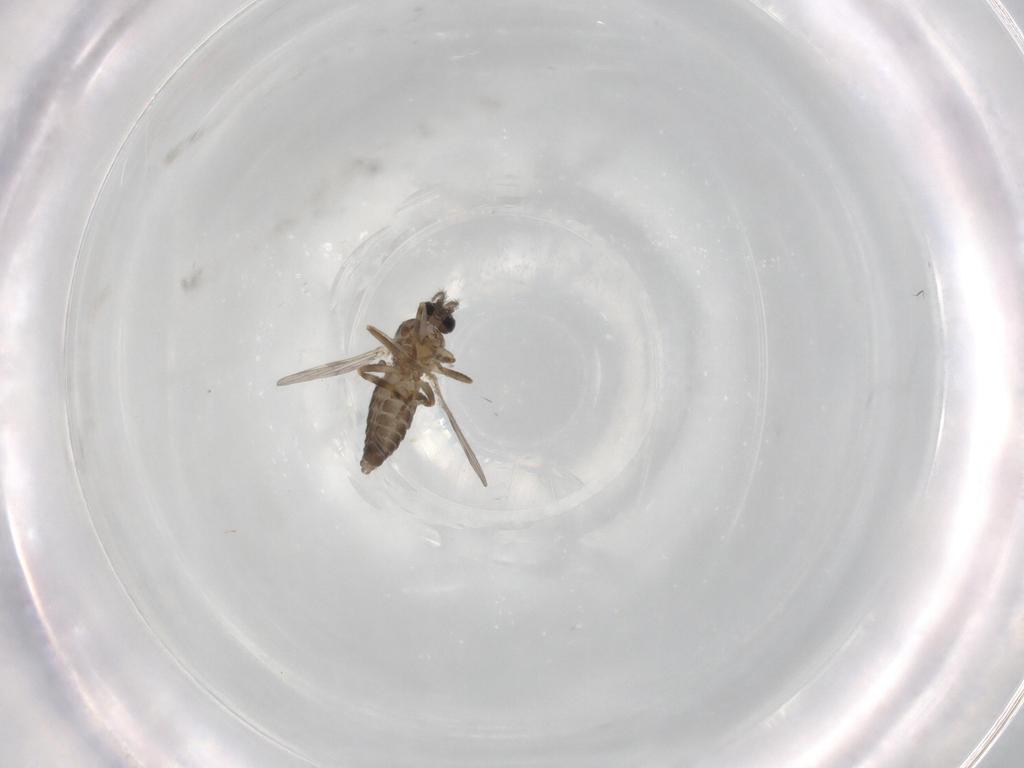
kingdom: Animalia
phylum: Arthropoda
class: Insecta
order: Diptera
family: Ceratopogonidae
